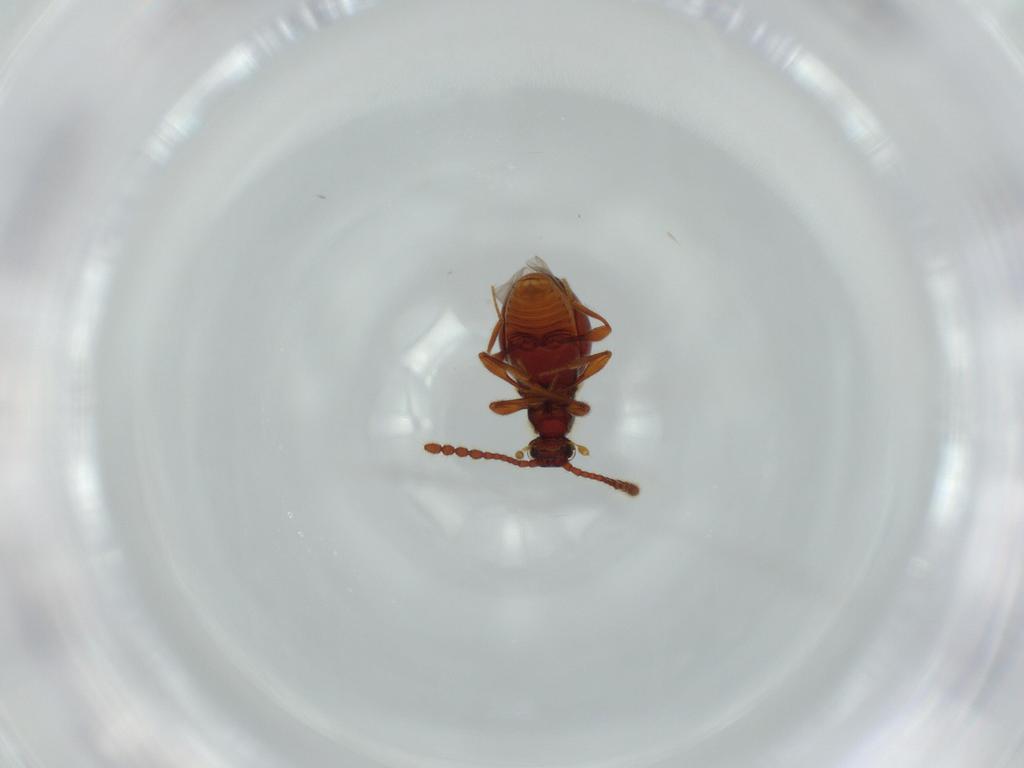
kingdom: Animalia
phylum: Arthropoda
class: Insecta
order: Coleoptera
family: Staphylinidae
